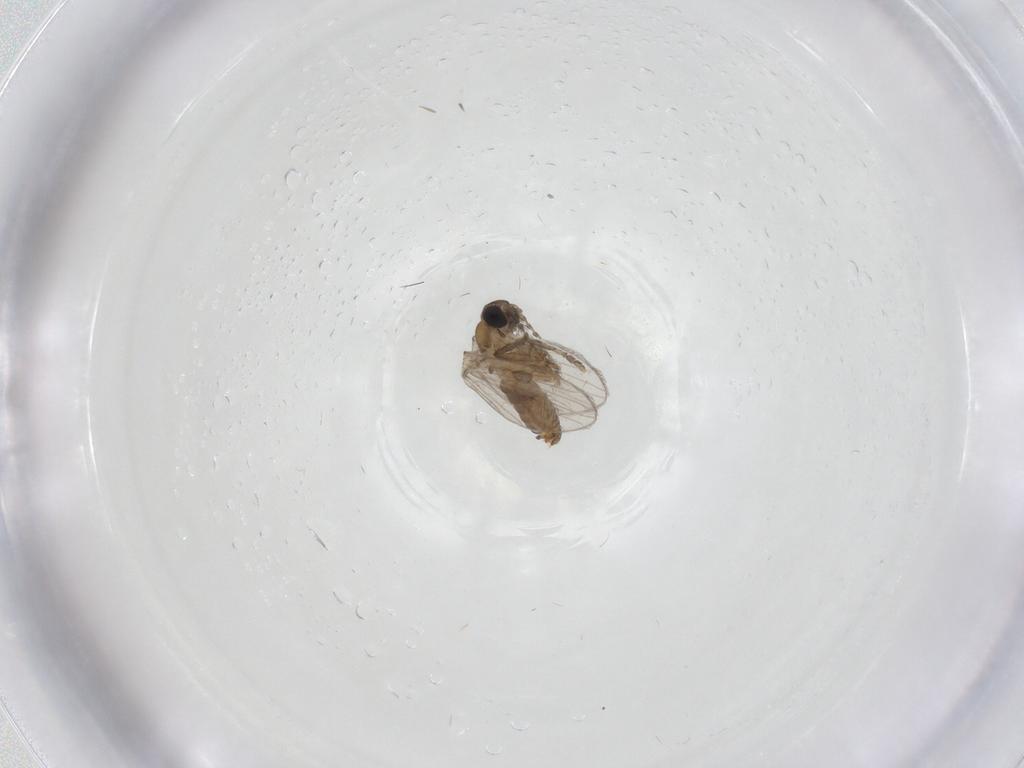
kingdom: Animalia
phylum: Arthropoda
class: Insecta
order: Diptera
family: Psychodidae
